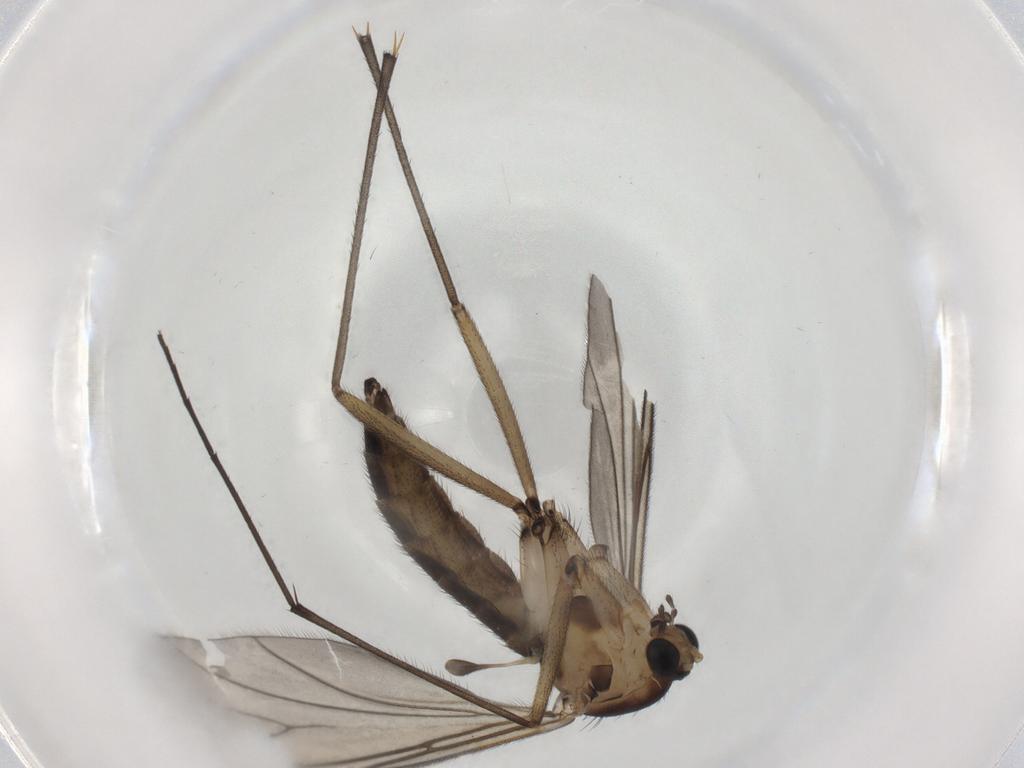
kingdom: Animalia
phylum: Arthropoda
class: Insecta
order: Diptera
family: Sciaridae
